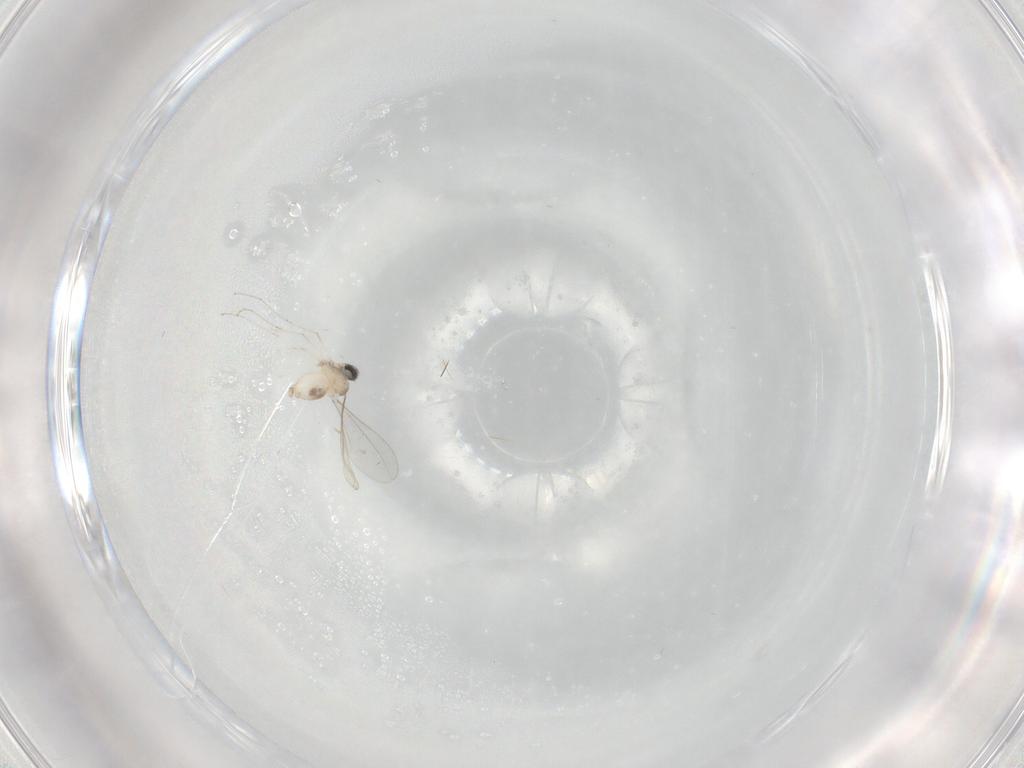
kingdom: Animalia
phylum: Arthropoda
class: Insecta
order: Diptera
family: Cecidomyiidae
